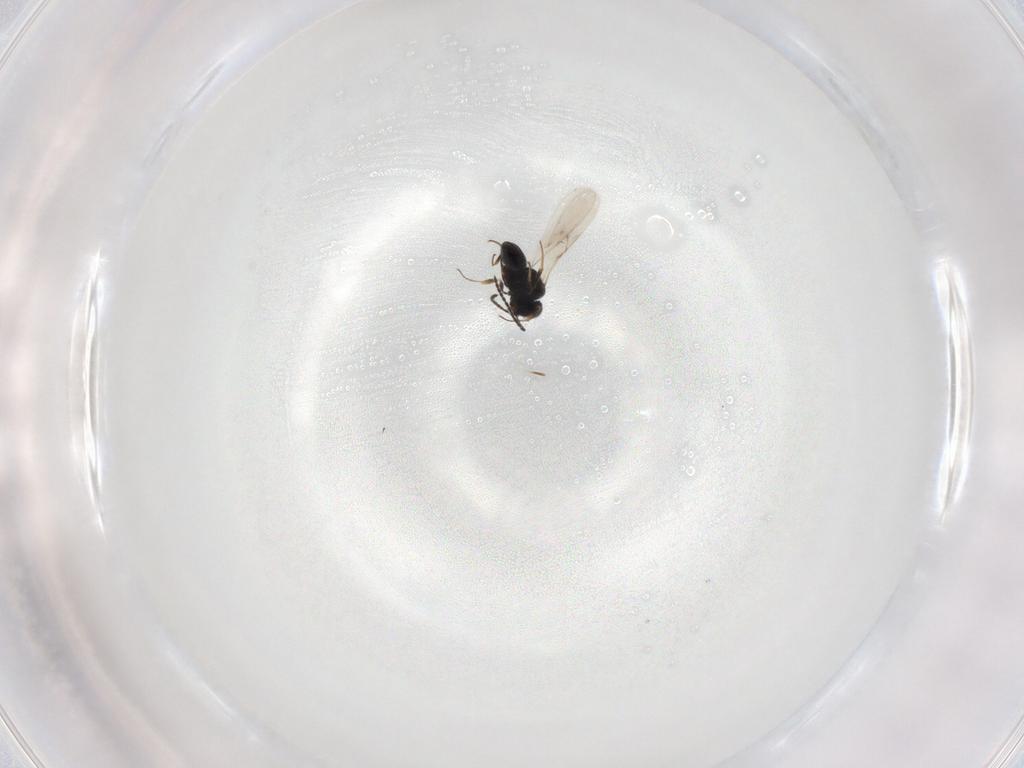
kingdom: Animalia
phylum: Arthropoda
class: Insecta
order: Hymenoptera
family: Scelionidae
